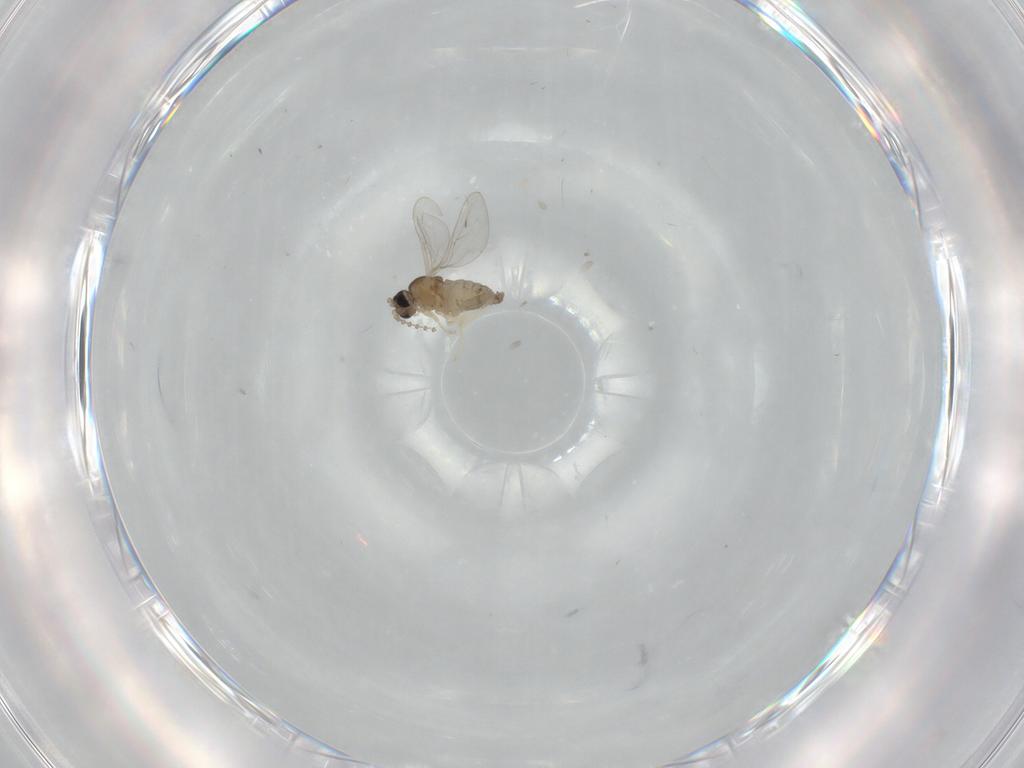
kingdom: Animalia
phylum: Arthropoda
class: Insecta
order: Diptera
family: Cecidomyiidae
